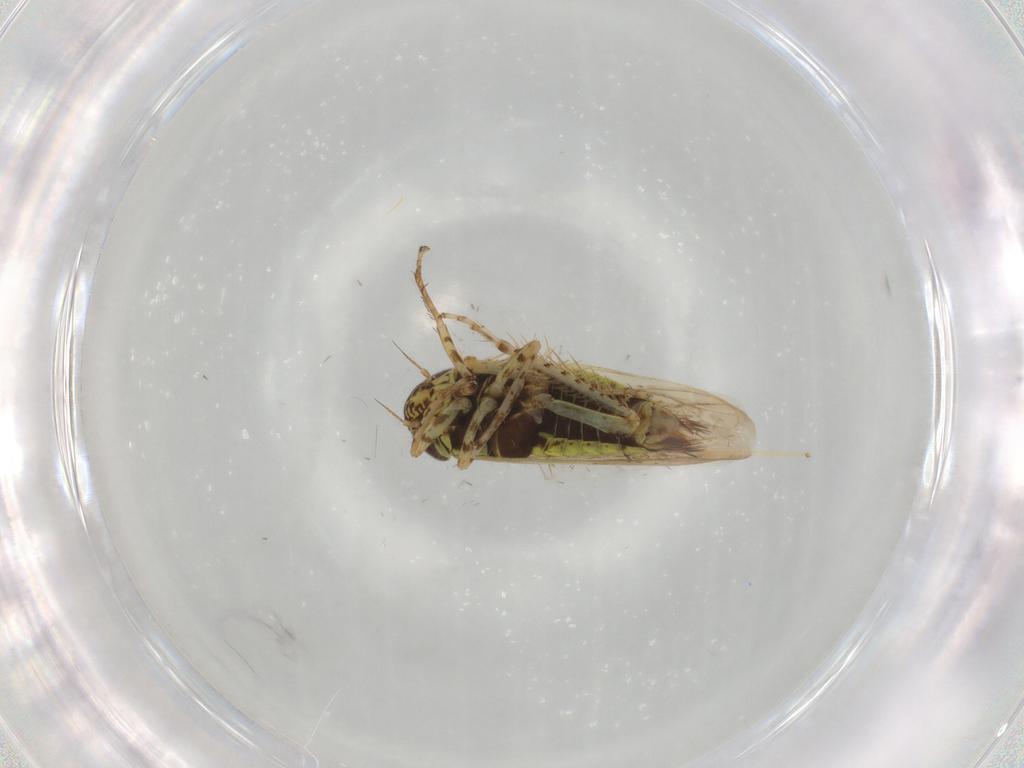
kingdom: Animalia
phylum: Arthropoda
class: Insecta
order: Hemiptera
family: Cicadellidae
